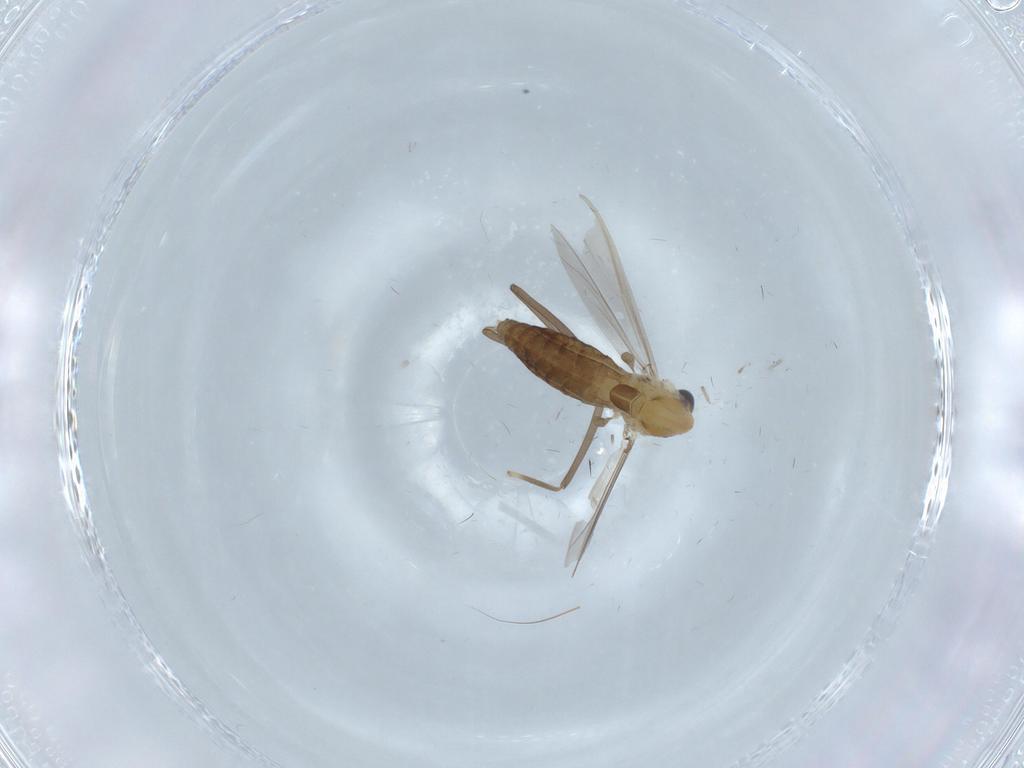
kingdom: Animalia
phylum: Arthropoda
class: Insecta
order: Diptera
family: Chironomidae
